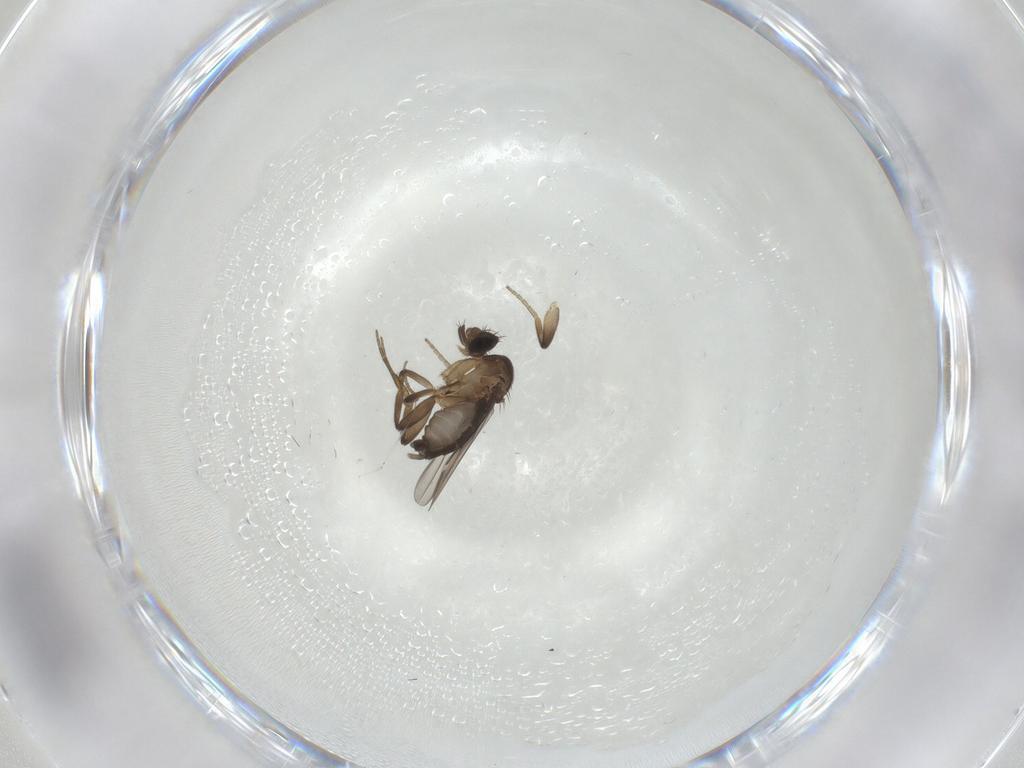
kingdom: Animalia
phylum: Arthropoda
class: Insecta
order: Diptera
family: Phoridae
